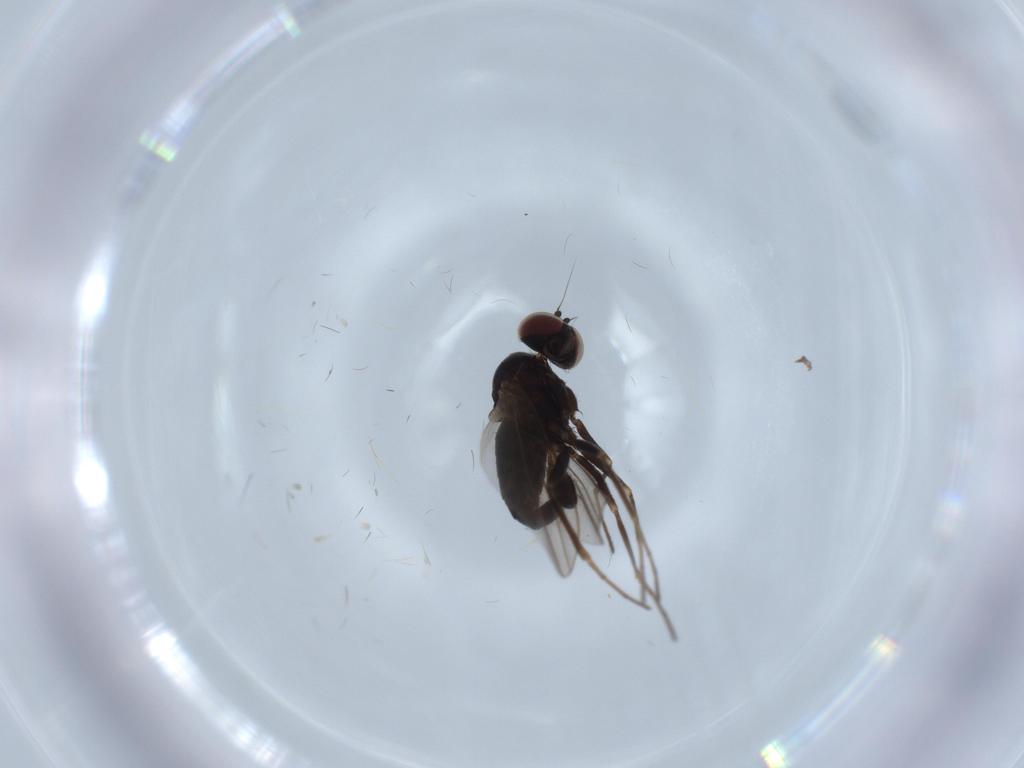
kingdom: Animalia
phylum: Arthropoda
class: Insecta
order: Diptera
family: Dolichopodidae
